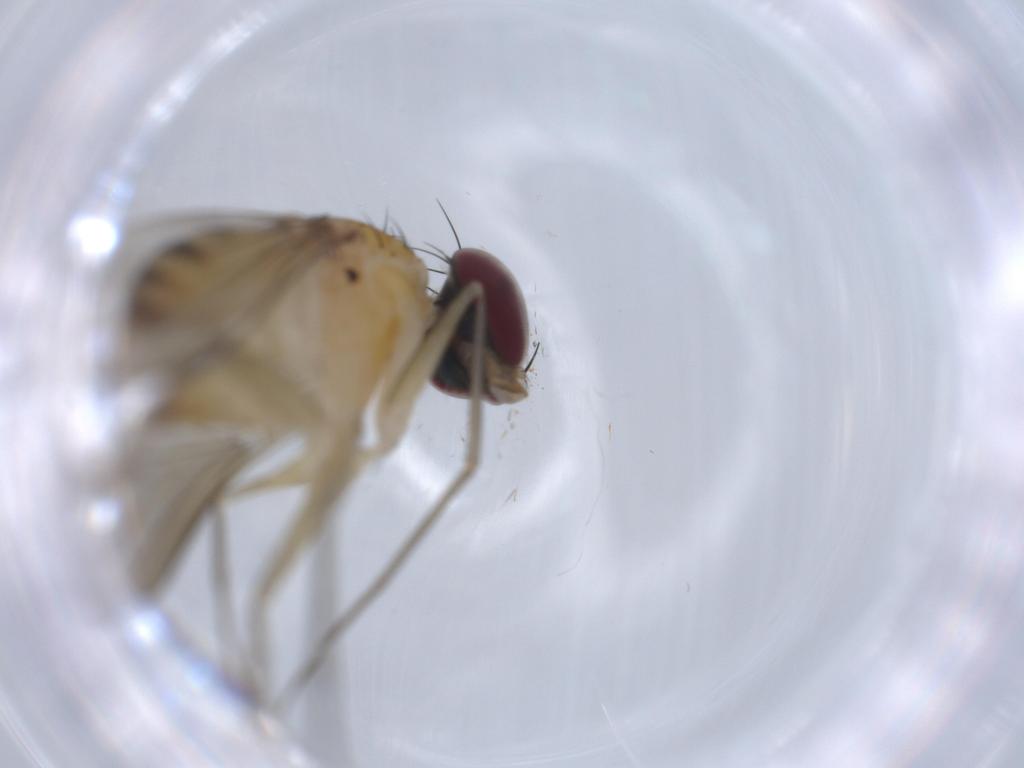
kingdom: Animalia
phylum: Arthropoda
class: Insecta
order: Diptera
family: Dolichopodidae
